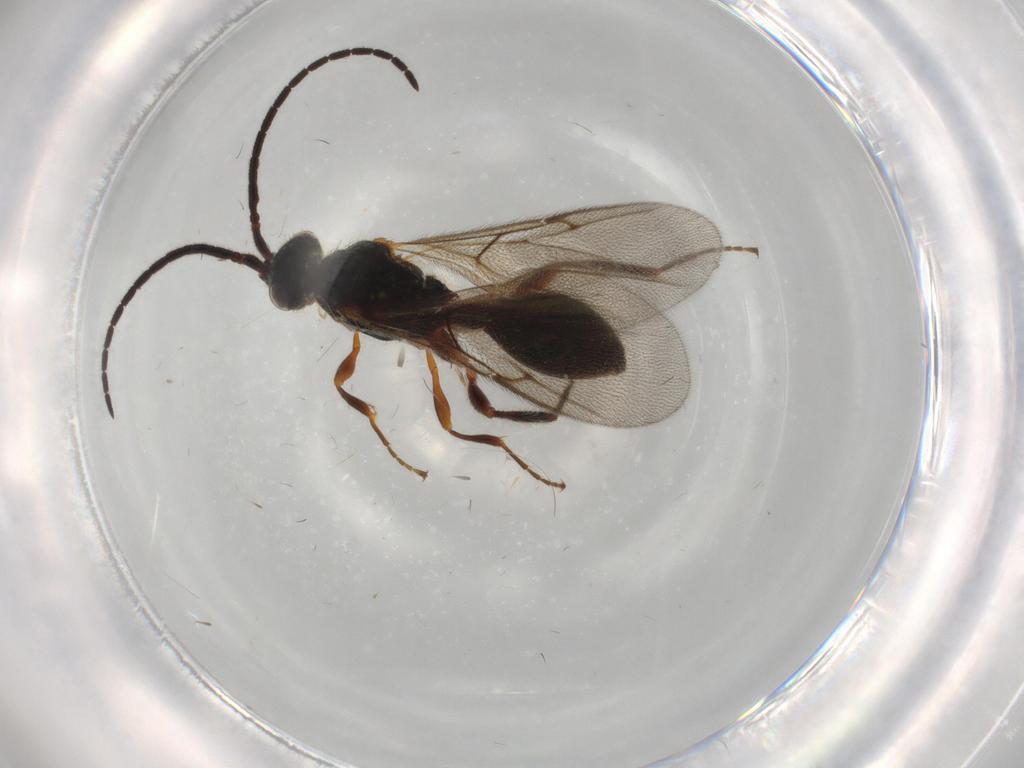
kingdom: Animalia
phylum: Arthropoda
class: Insecta
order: Hymenoptera
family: Diapriidae
